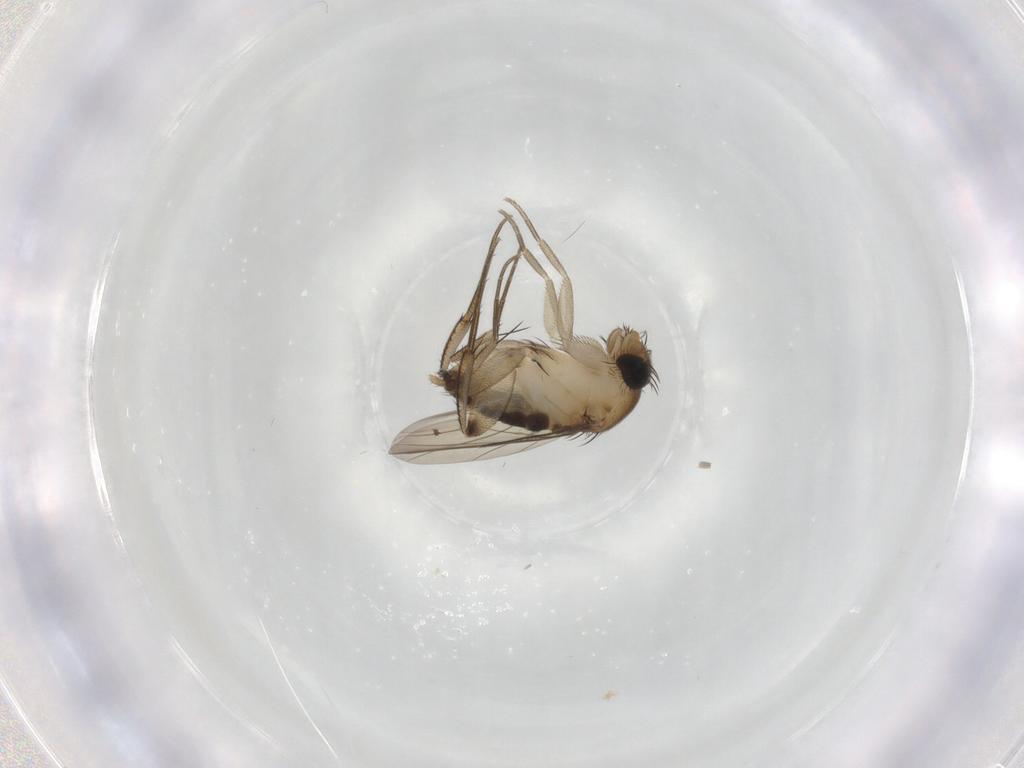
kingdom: Animalia
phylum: Arthropoda
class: Insecta
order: Diptera
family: Phoridae
